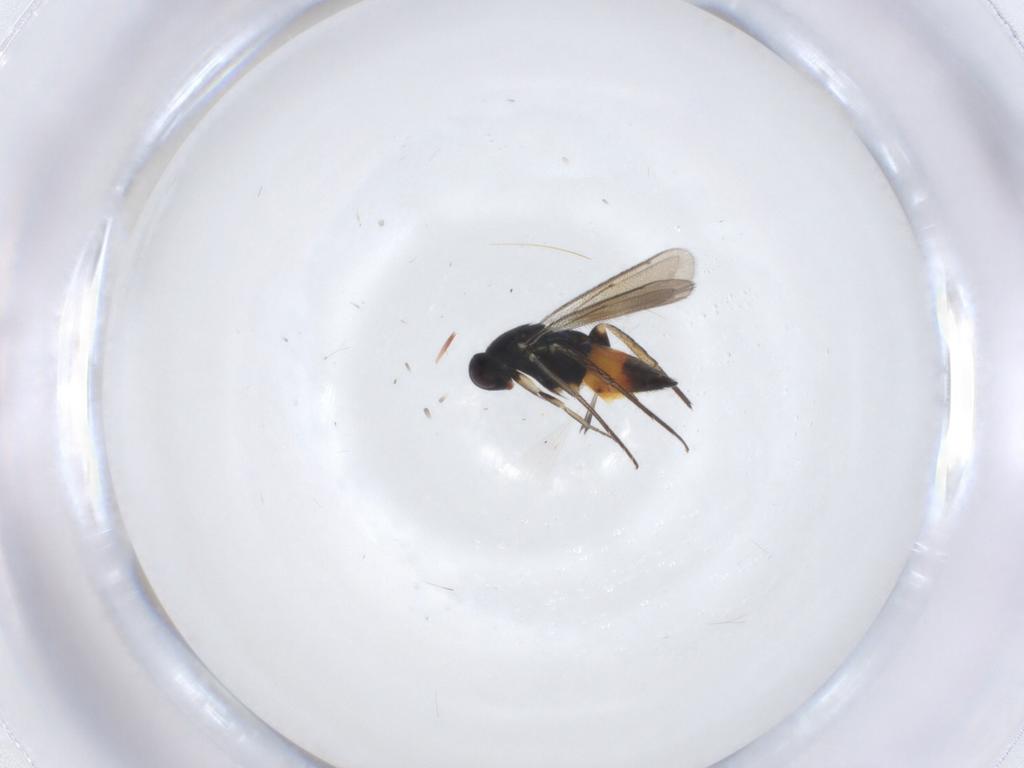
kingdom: Animalia
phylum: Arthropoda
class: Insecta
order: Hymenoptera
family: Eulophidae
